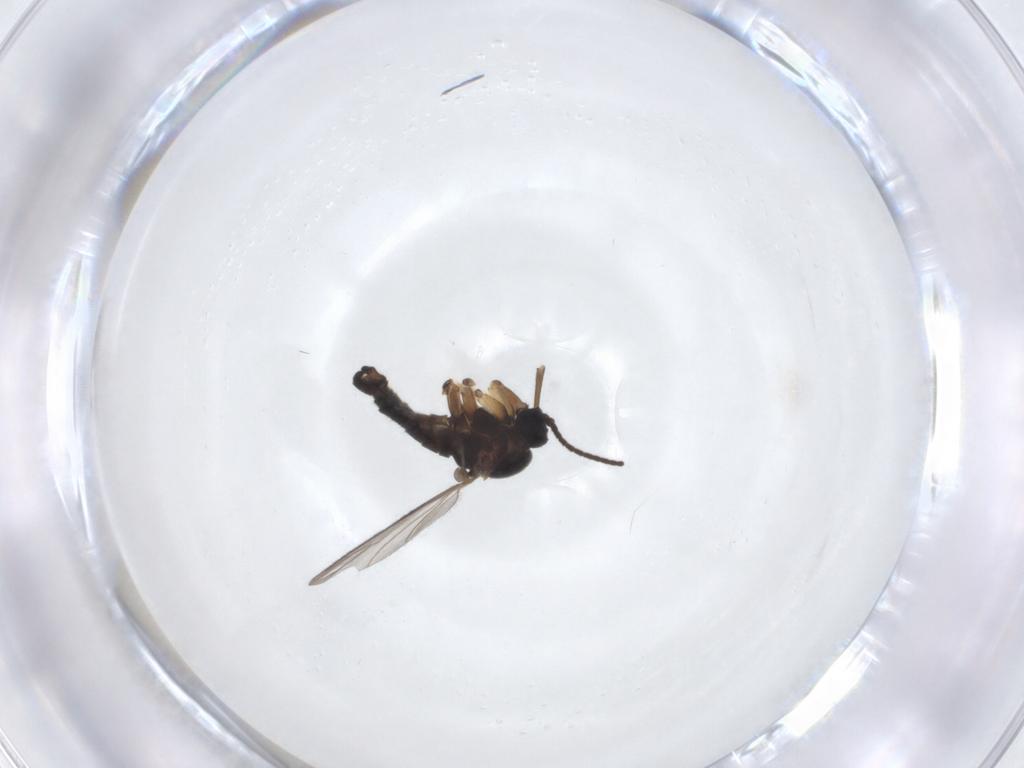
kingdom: Animalia
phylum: Arthropoda
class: Insecta
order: Diptera
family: Sciaridae
